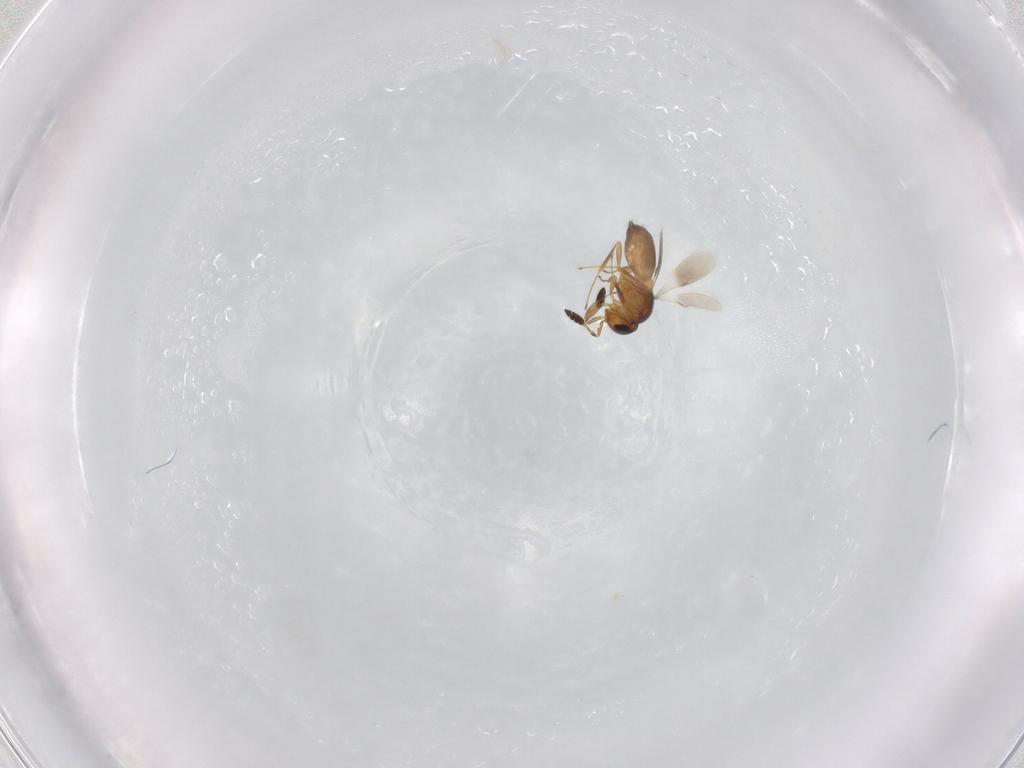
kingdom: Animalia
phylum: Arthropoda
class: Insecta
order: Hymenoptera
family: Scelionidae
